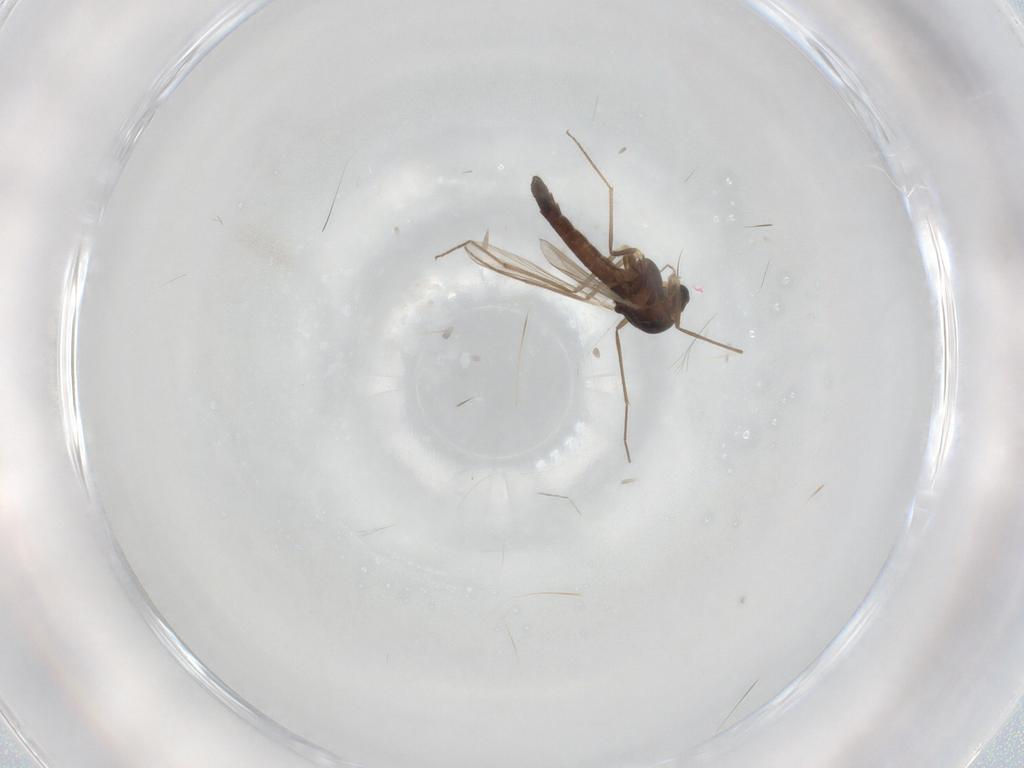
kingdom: Animalia
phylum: Arthropoda
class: Insecta
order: Diptera
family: Chironomidae
